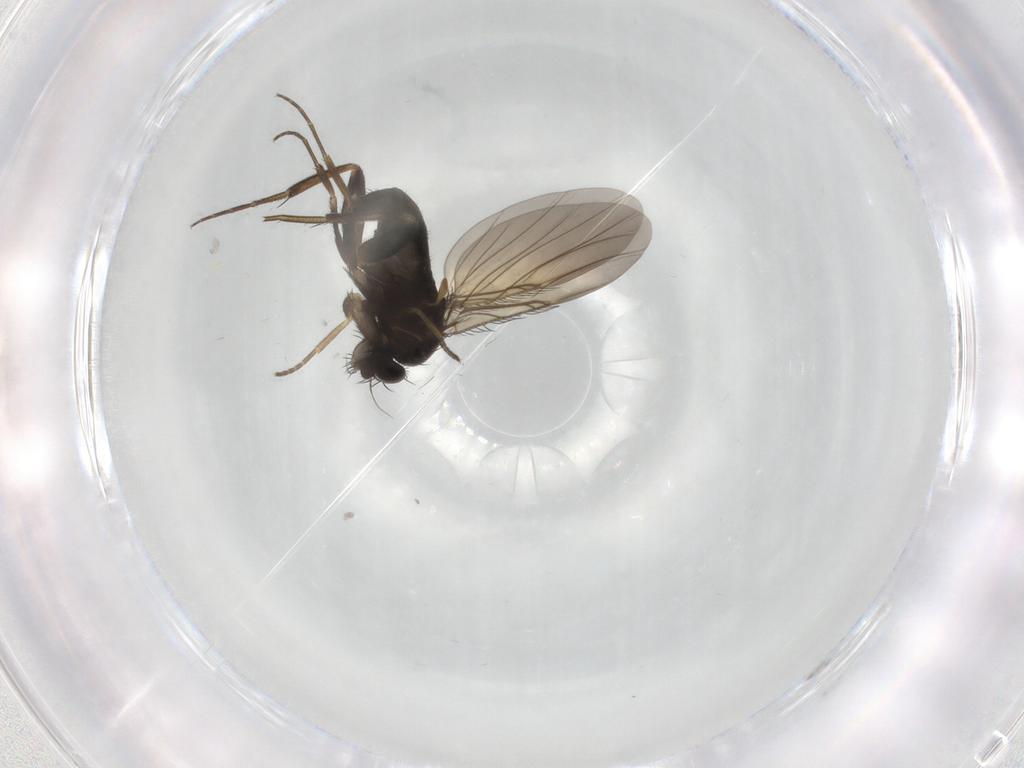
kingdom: Animalia
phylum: Arthropoda
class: Insecta
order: Diptera
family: Phoridae
